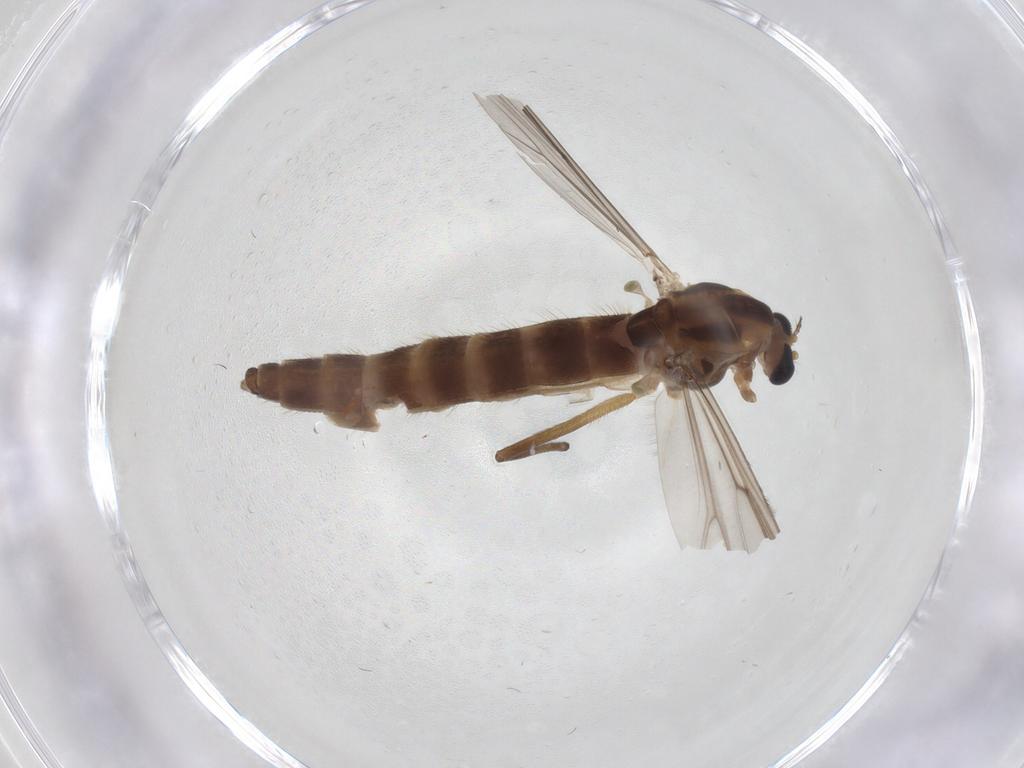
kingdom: Animalia
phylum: Arthropoda
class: Insecta
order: Diptera
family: Chironomidae
